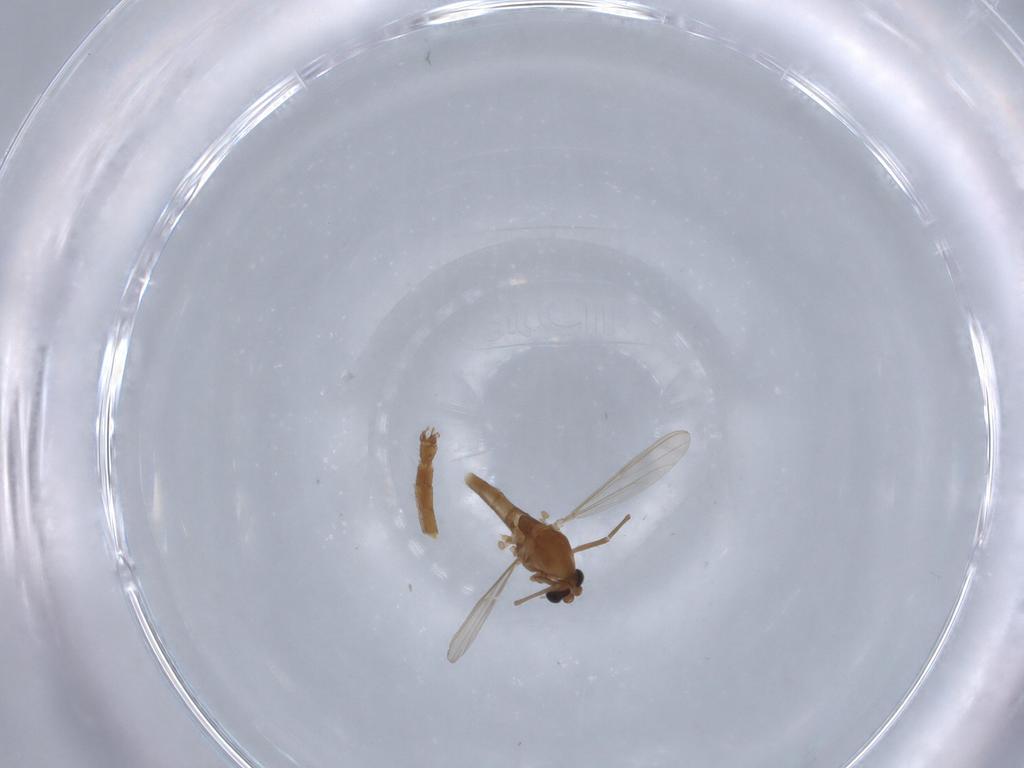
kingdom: Animalia
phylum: Arthropoda
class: Insecta
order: Diptera
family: Chironomidae
